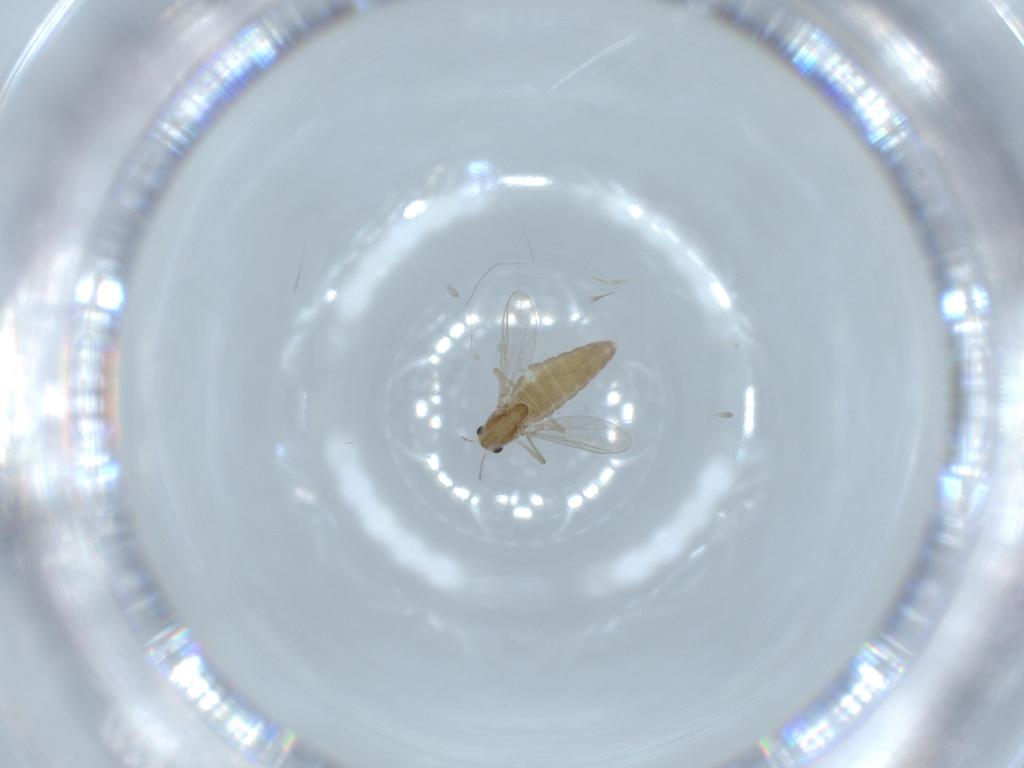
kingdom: Animalia
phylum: Arthropoda
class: Insecta
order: Diptera
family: Chironomidae
